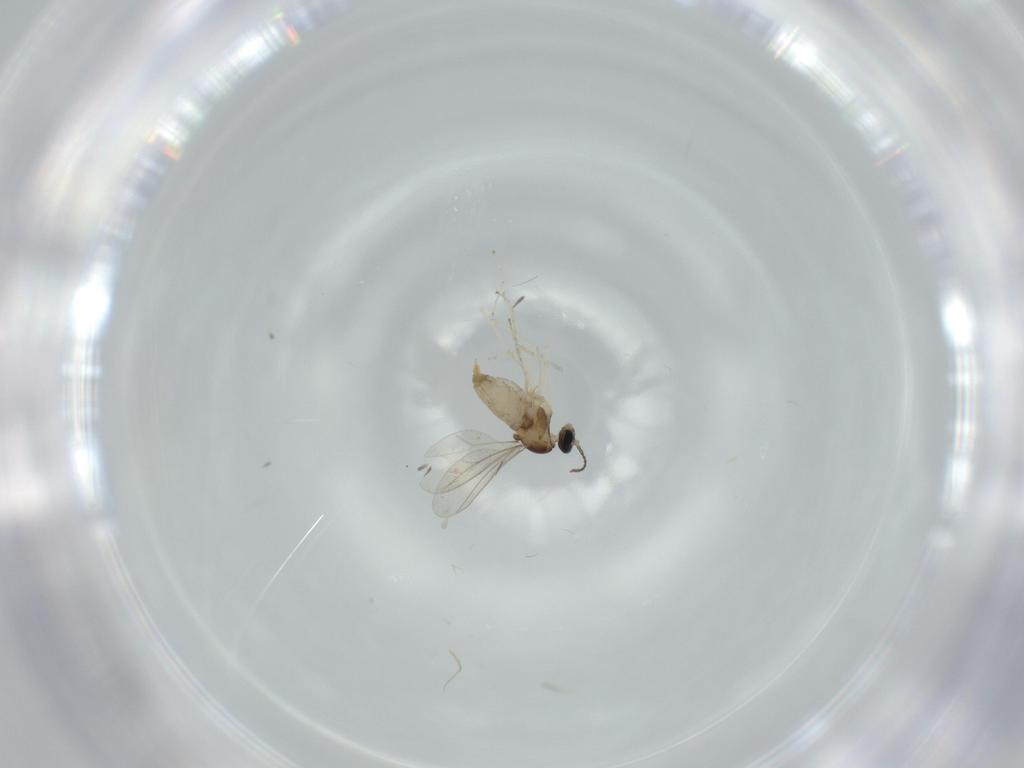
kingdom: Animalia
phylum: Arthropoda
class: Insecta
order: Diptera
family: Cecidomyiidae
